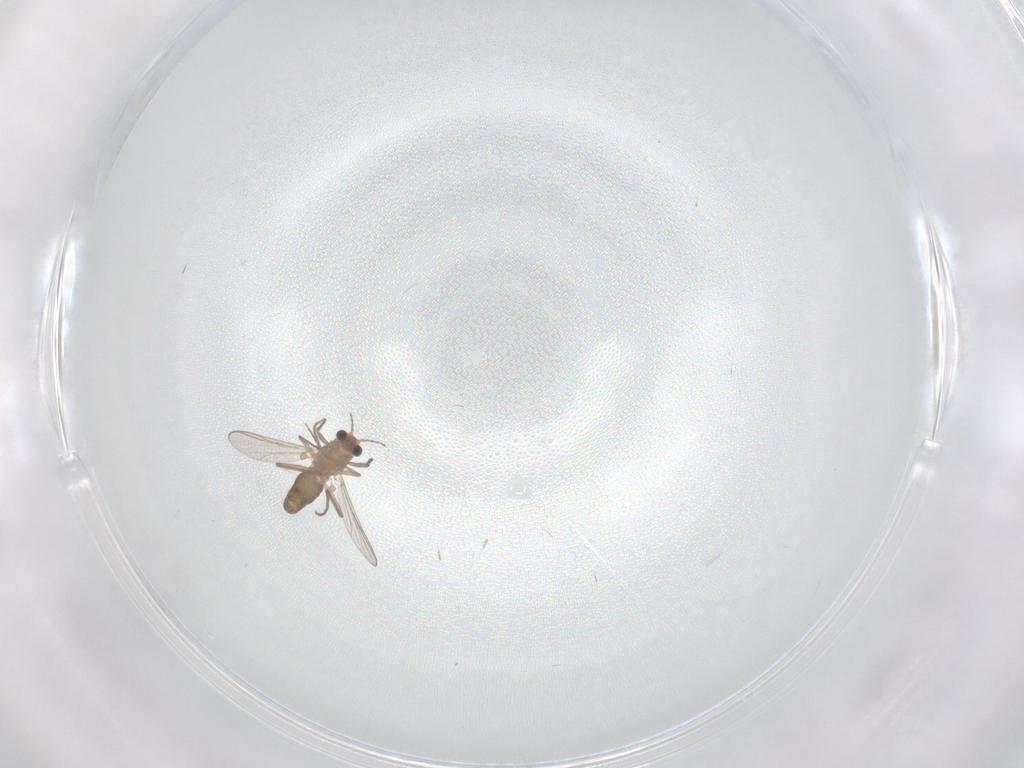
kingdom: Animalia
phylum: Arthropoda
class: Insecta
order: Diptera
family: Chironomidae
